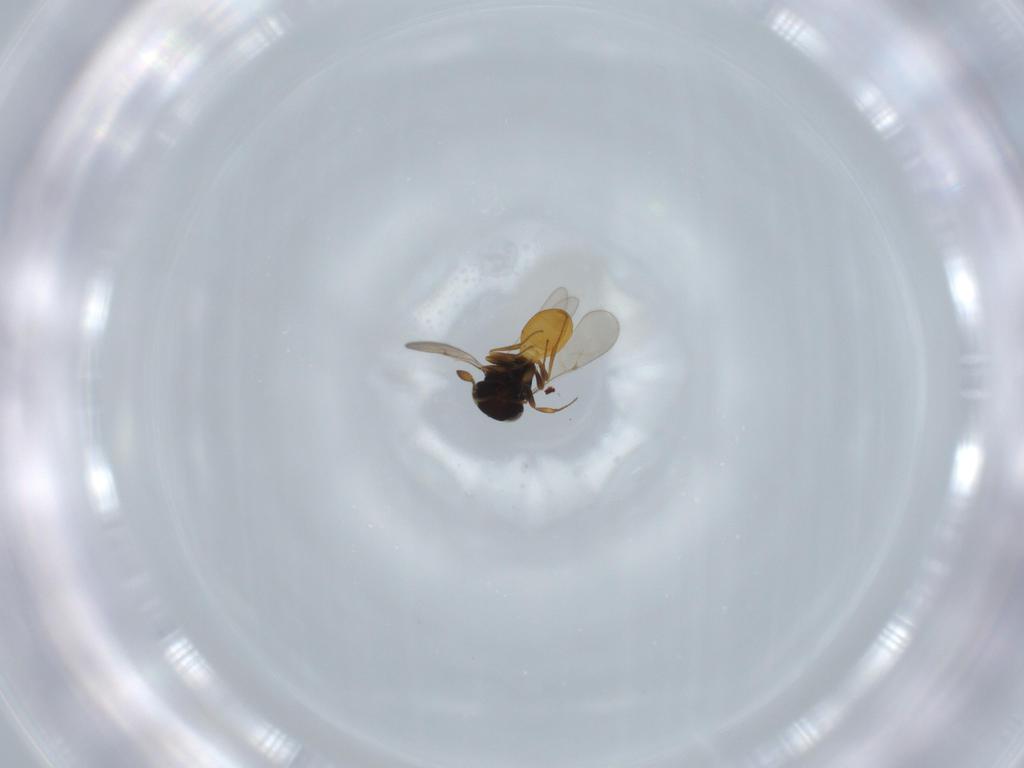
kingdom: Animalia
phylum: Arthropoda
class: Insecta
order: Hymenoptera
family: Scelionidae
